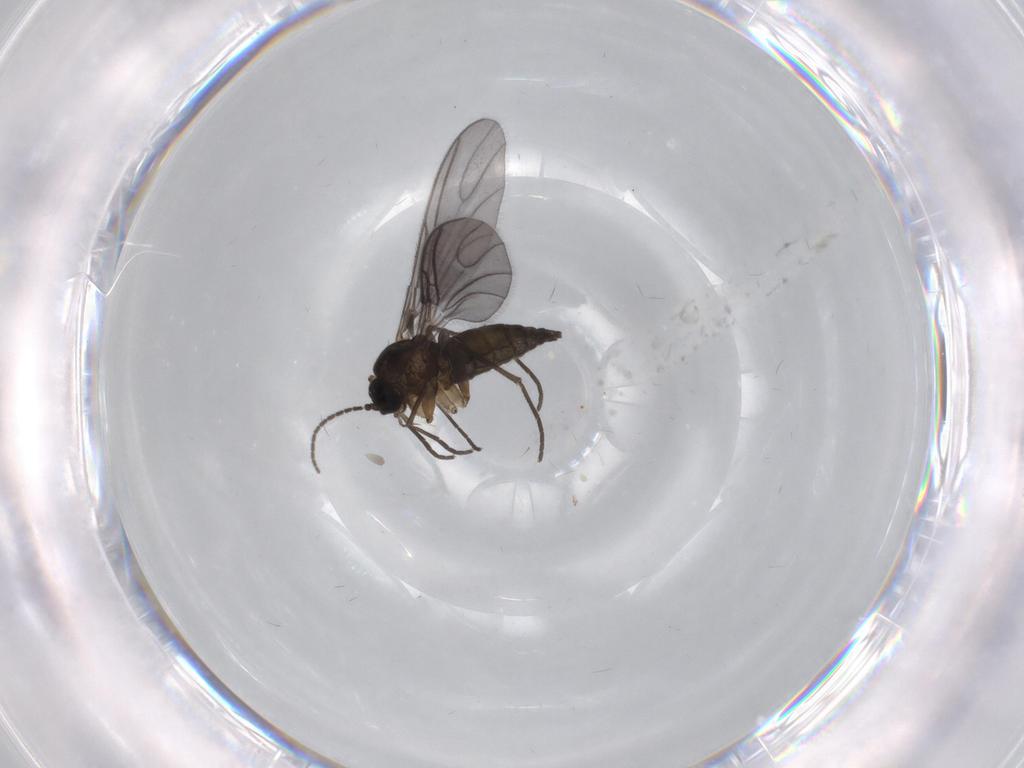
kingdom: Animalia
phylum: Arthropoda
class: Insecta
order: Diptera
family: Sciaridae
